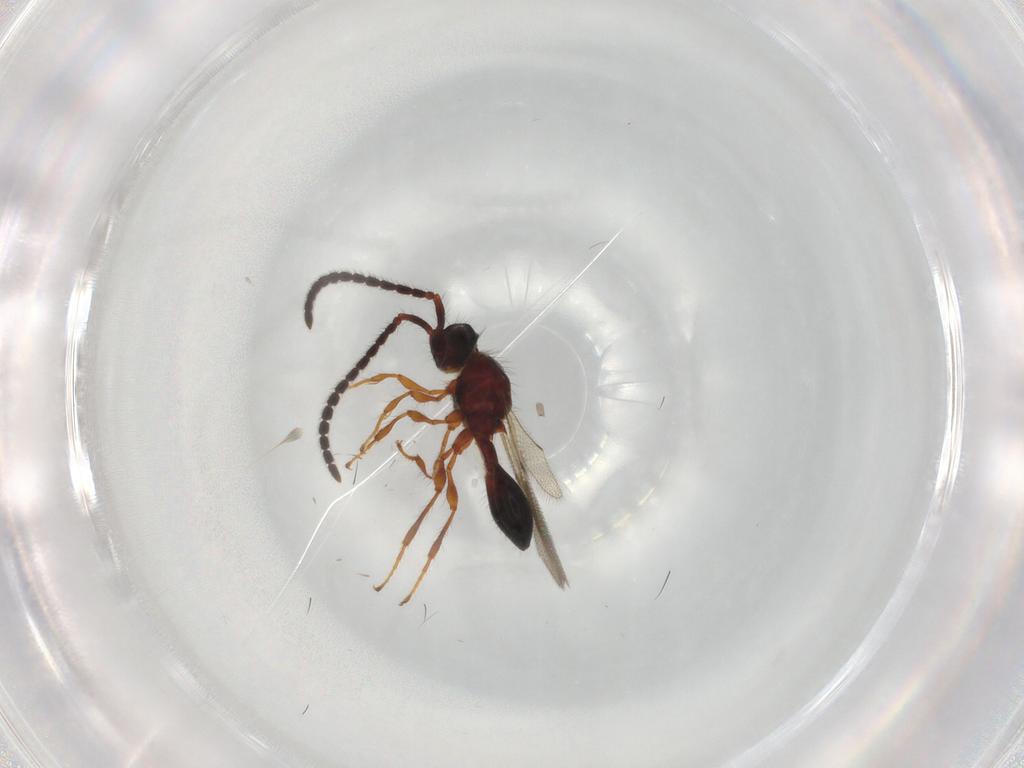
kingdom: Animalia
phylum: Arthropoda
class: Insecta
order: Hymenoptera
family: Diapriidae
